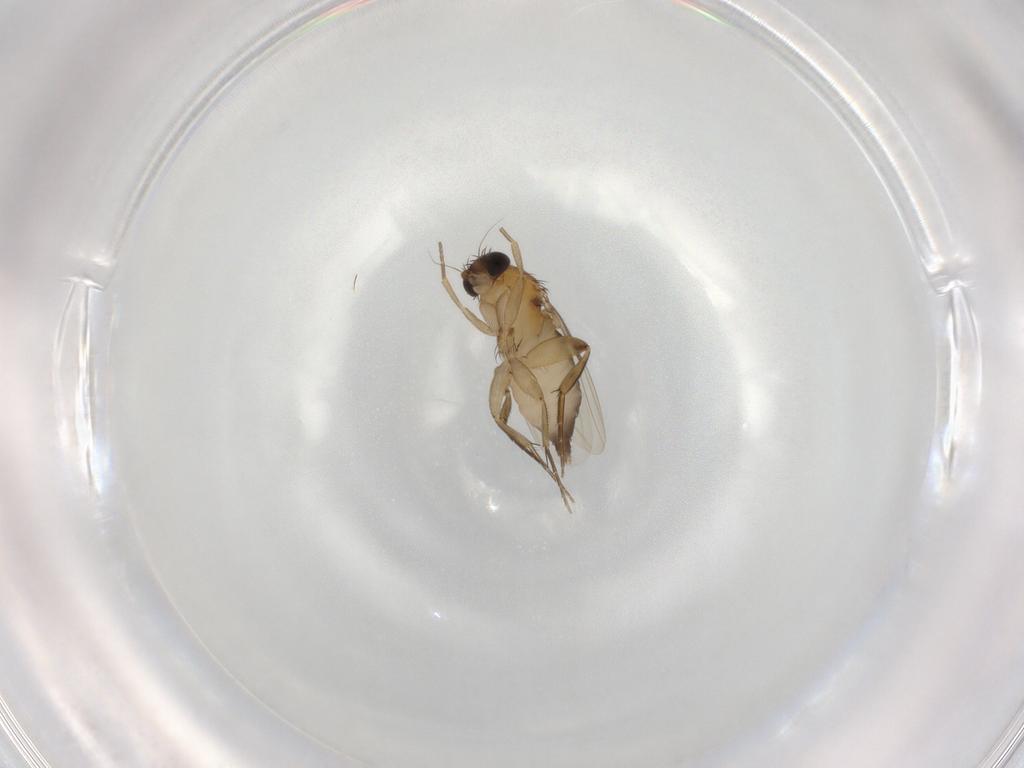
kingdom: Animalia
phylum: Arthropoda
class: Insecta
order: Diptera
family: Phoridae
